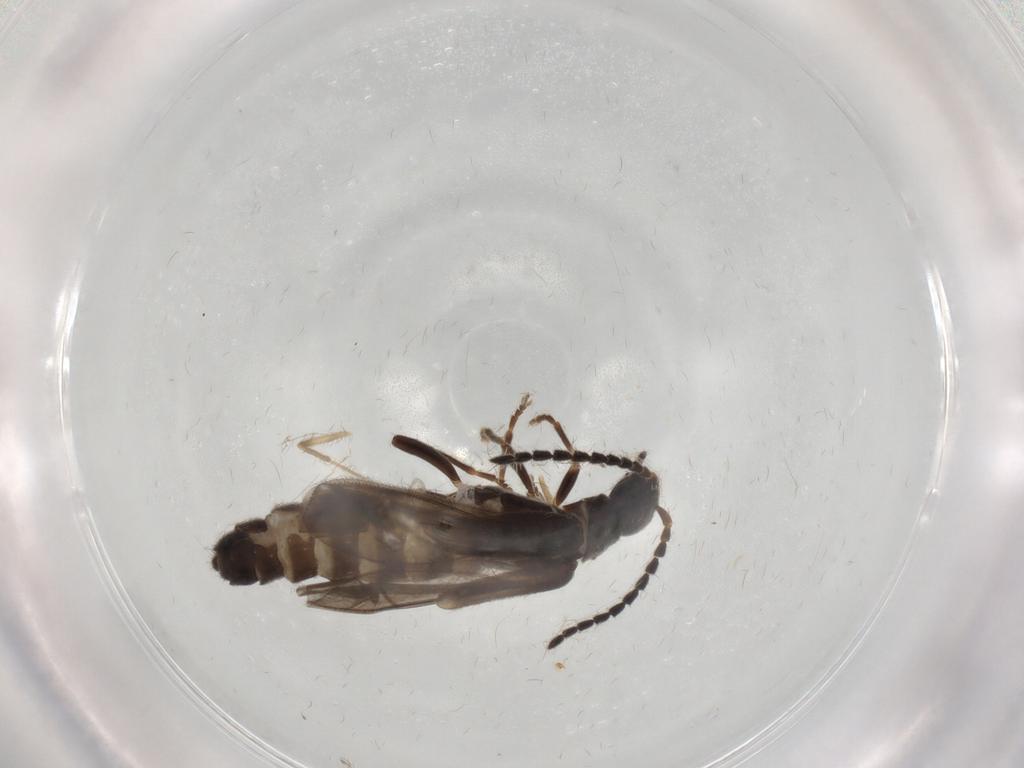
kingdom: Animalia
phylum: Arthropoda
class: Insecta
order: Coleoptera
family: Cantharidae
